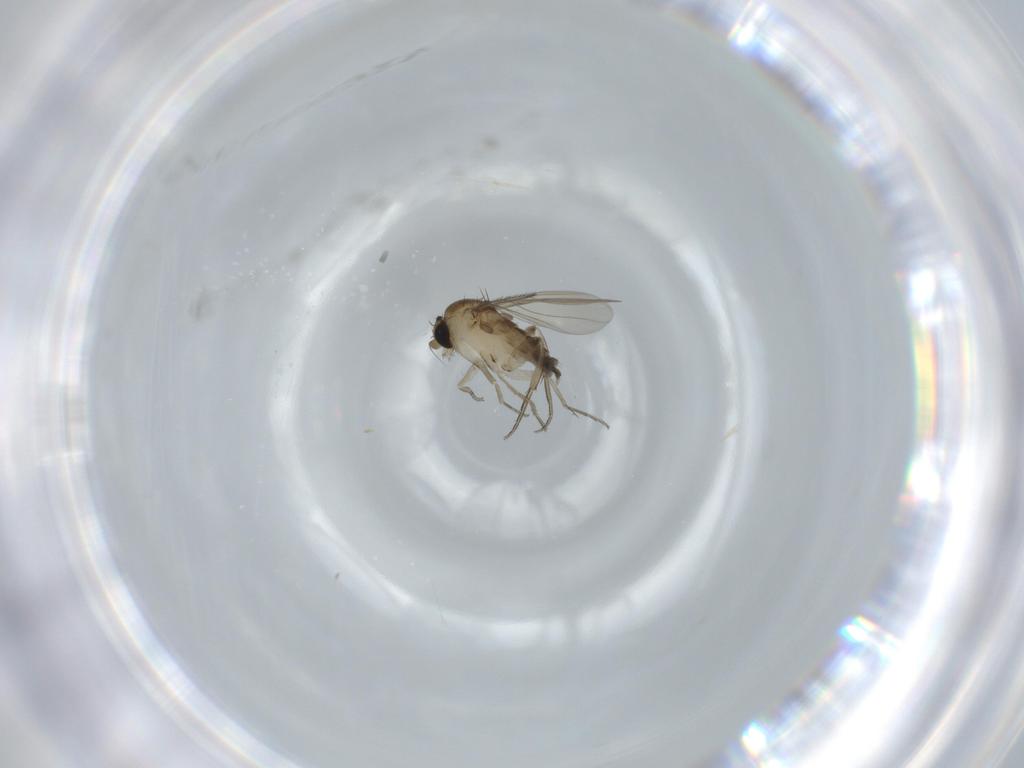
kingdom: Animalia
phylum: Arthropoda
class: Insecta
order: Diptera
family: Phoridae
